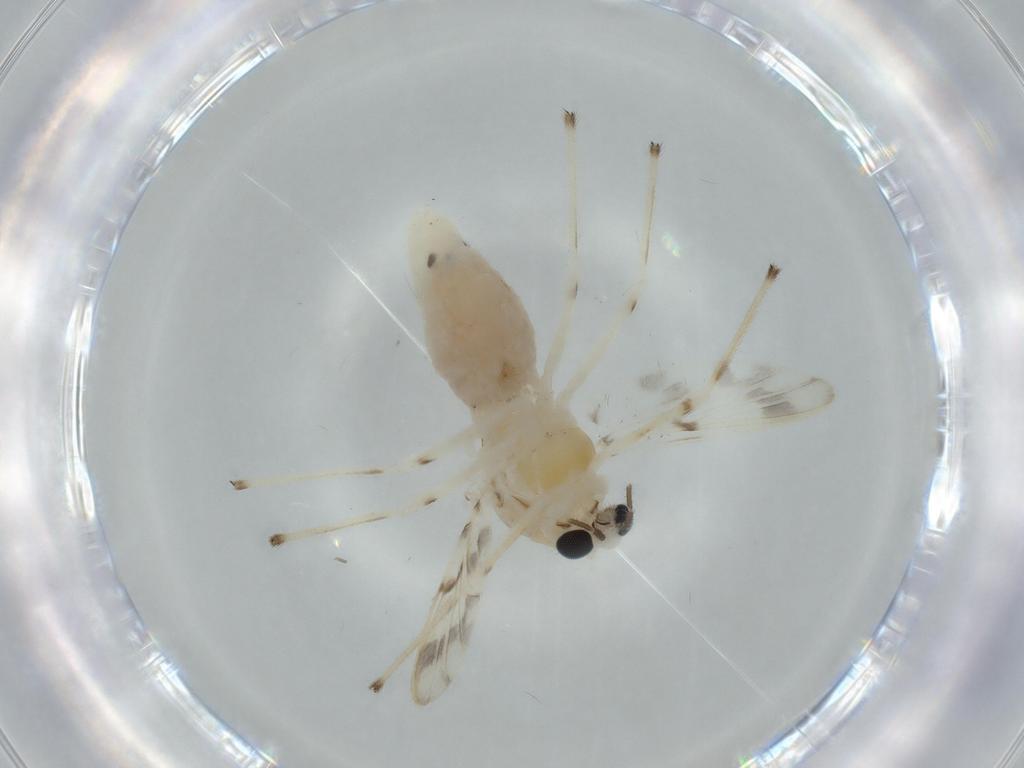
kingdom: Animalia
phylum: Arthropoda
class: Insecta
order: Diptera
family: Chironomidae
